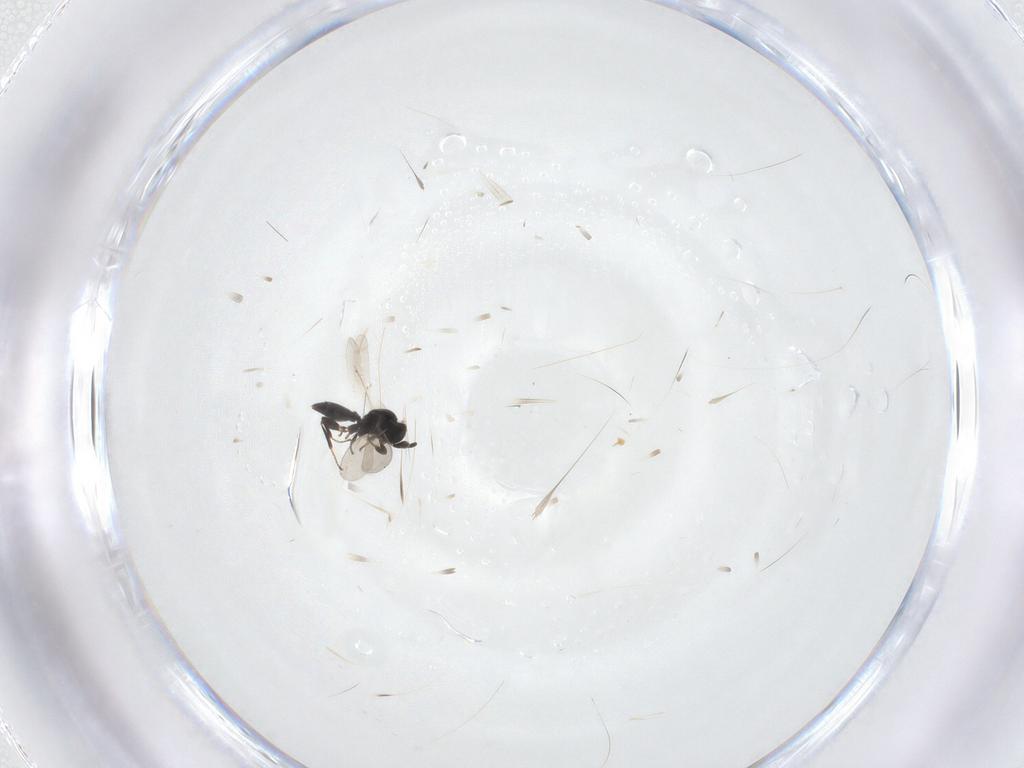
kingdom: Animalia
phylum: Arthropoda
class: Insecta
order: Hymenoptera
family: Platygastridae
